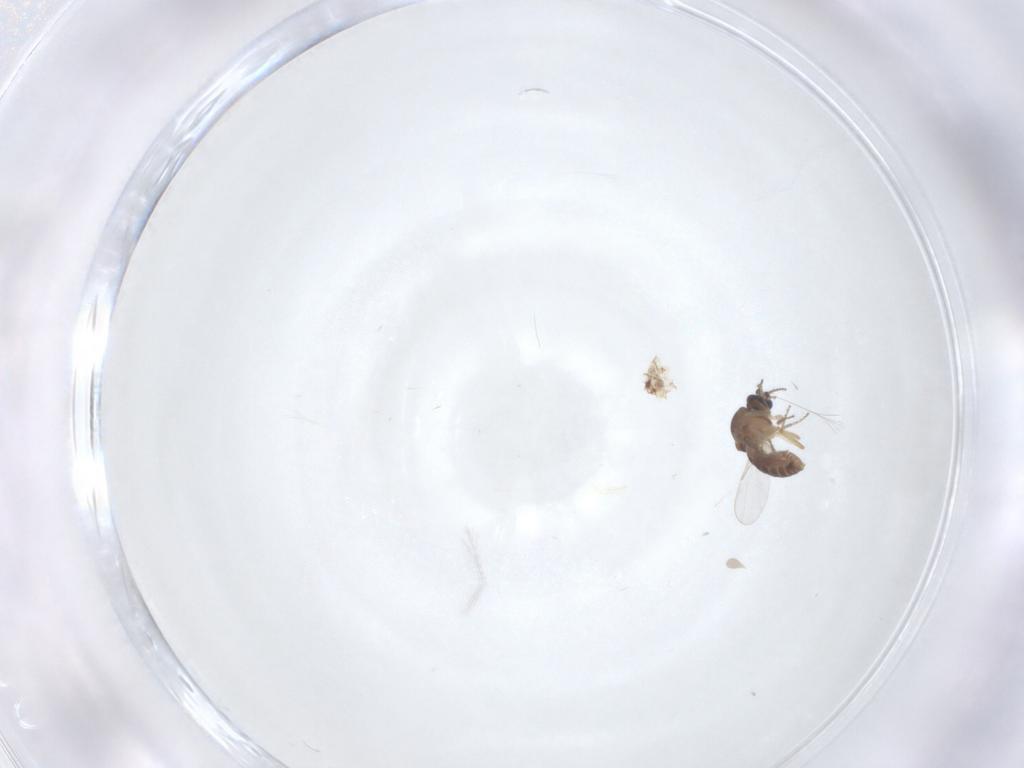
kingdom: Animalia
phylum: Arthropoda
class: Insecta
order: Diptera
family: Ceratopogonidae
